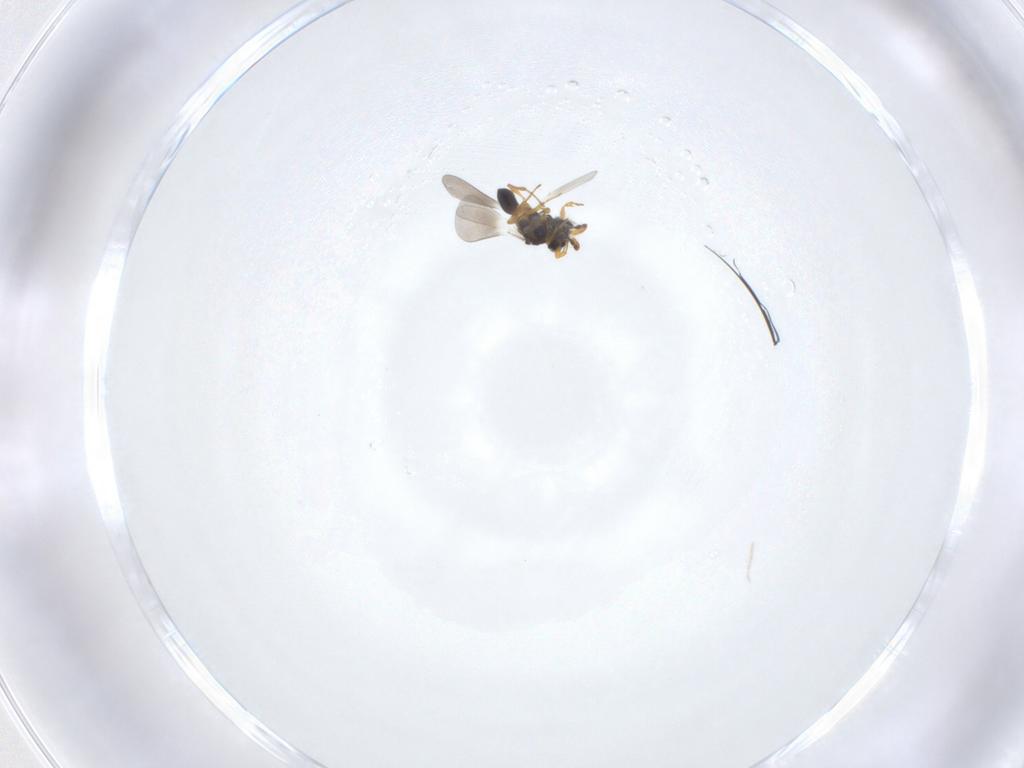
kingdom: Animalia
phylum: Arthropoda
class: Insecta
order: Hymenoptera
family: Platygastridae
